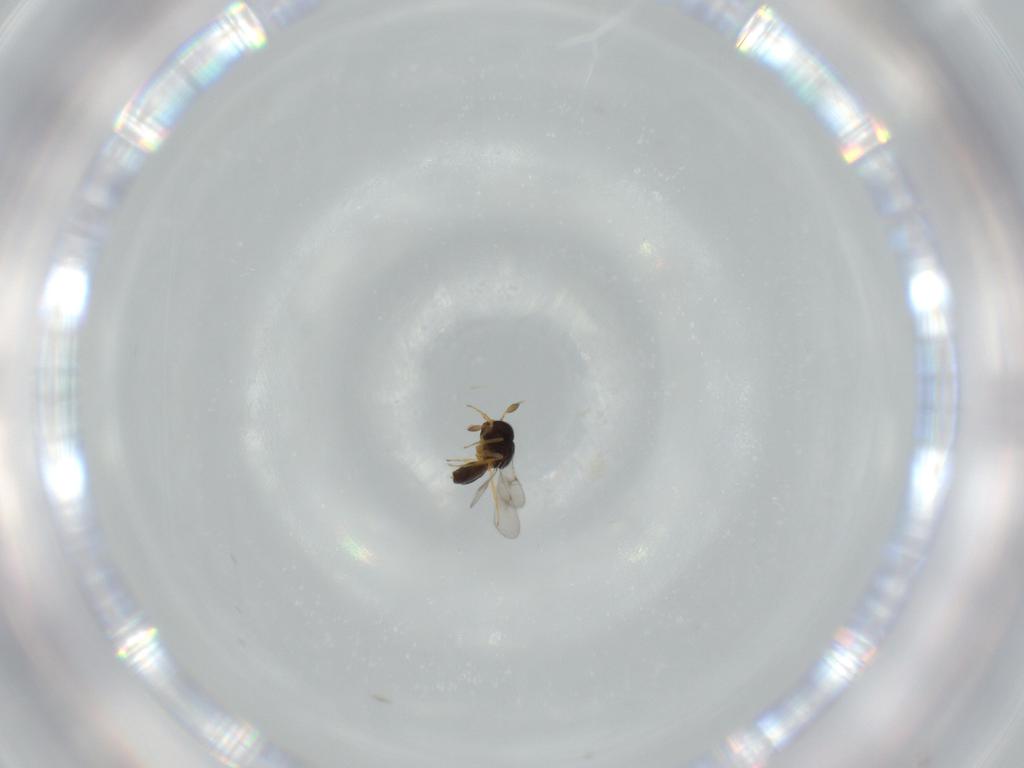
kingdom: Animalia
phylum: Arthropoda
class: Insecta
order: Hymenoptera
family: Scelionidae
